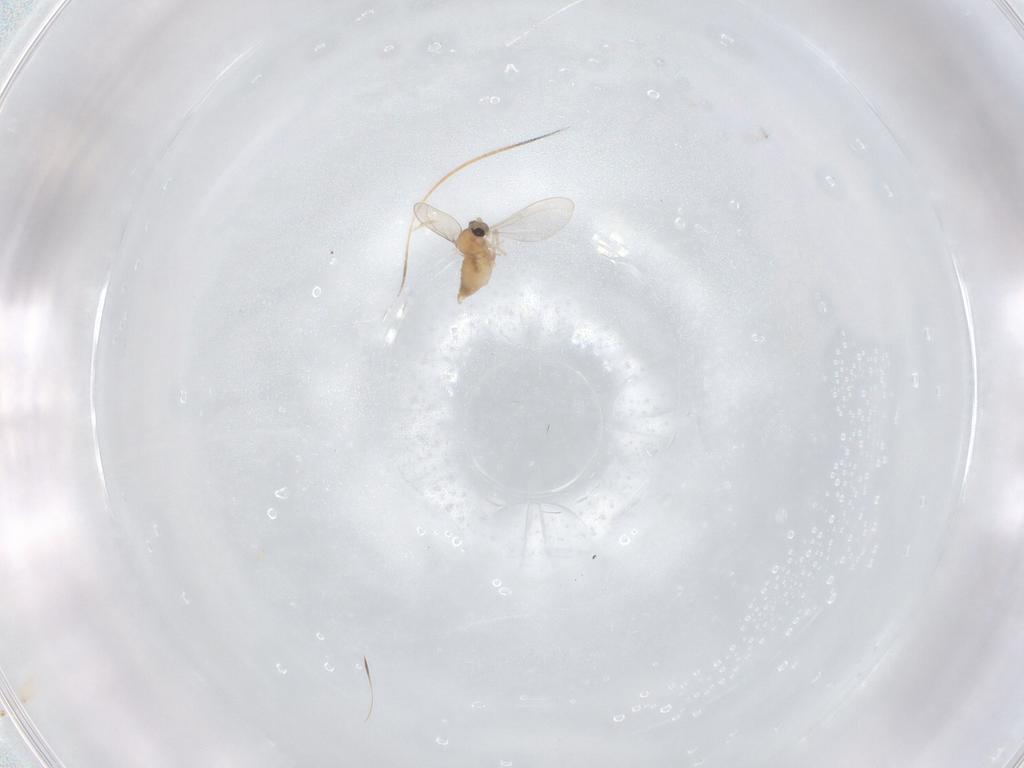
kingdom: Animalia
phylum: Arthropoda
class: Insecta
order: Diptera
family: Cecidomyiidae
